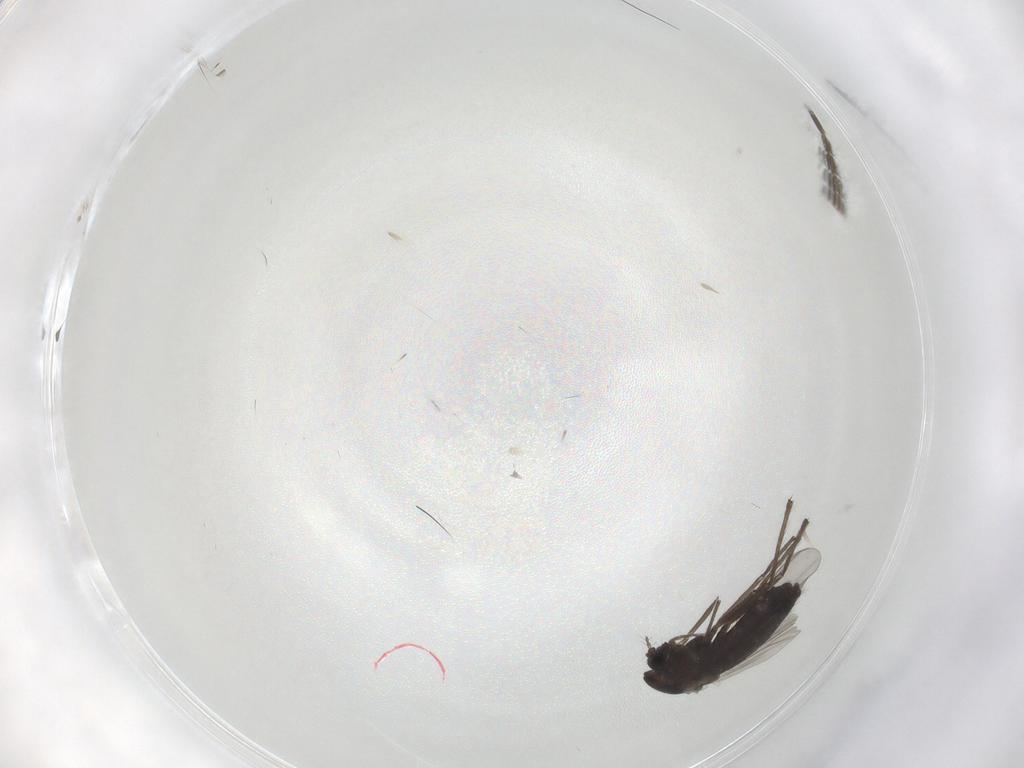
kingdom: Animalia
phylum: Arthropoda
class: Insecta
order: Diptera
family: Chironomidae
